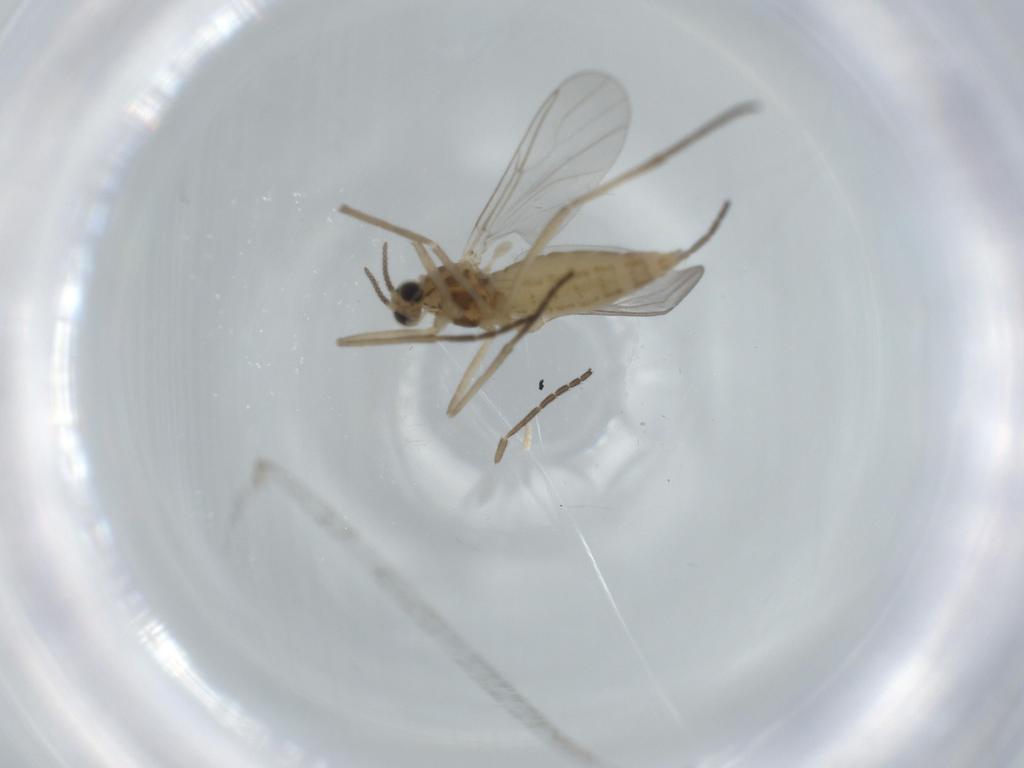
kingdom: Animalia
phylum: Arthropoda
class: Insecta
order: Diptera
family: Cecidomyiidae
